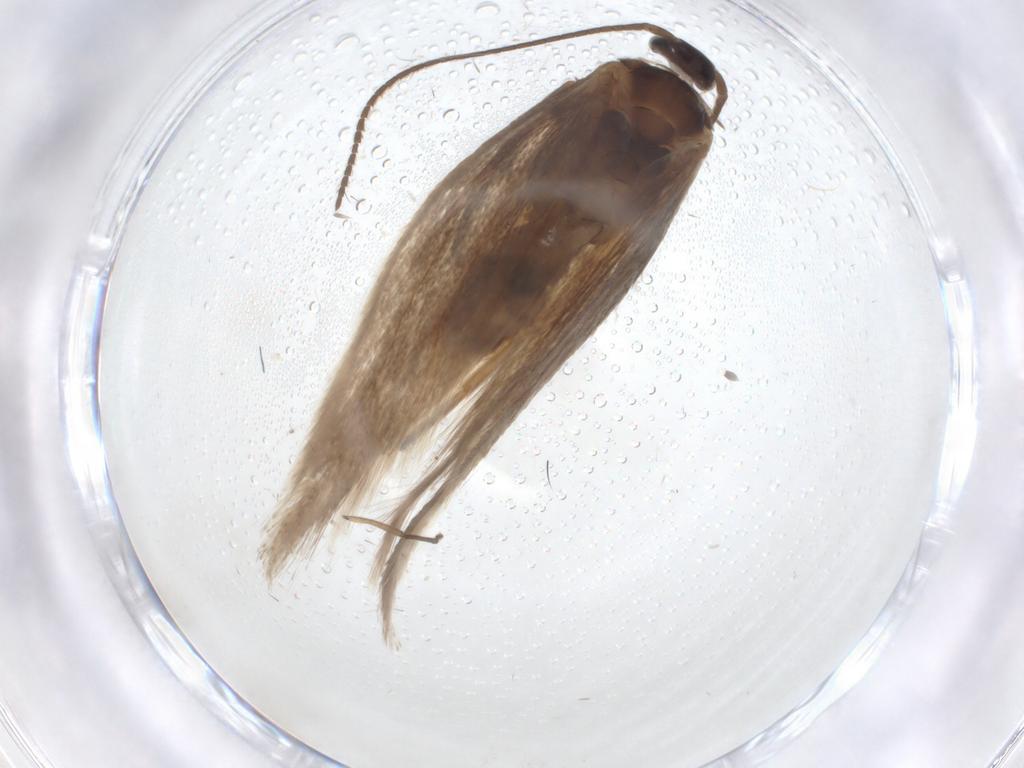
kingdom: Animalia
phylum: Arthropoda
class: Insecta
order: Lepidoptera
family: Elachistidae
